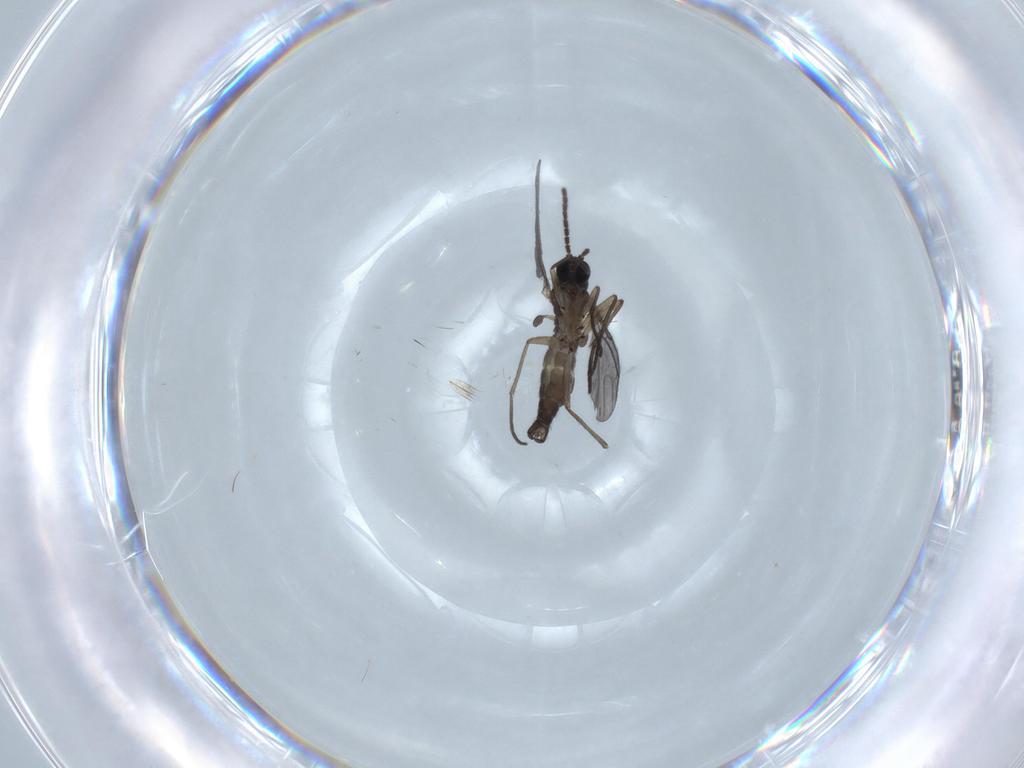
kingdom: Animalia
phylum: Arthropoda
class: Insecta
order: Diptera
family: Sciaridae
